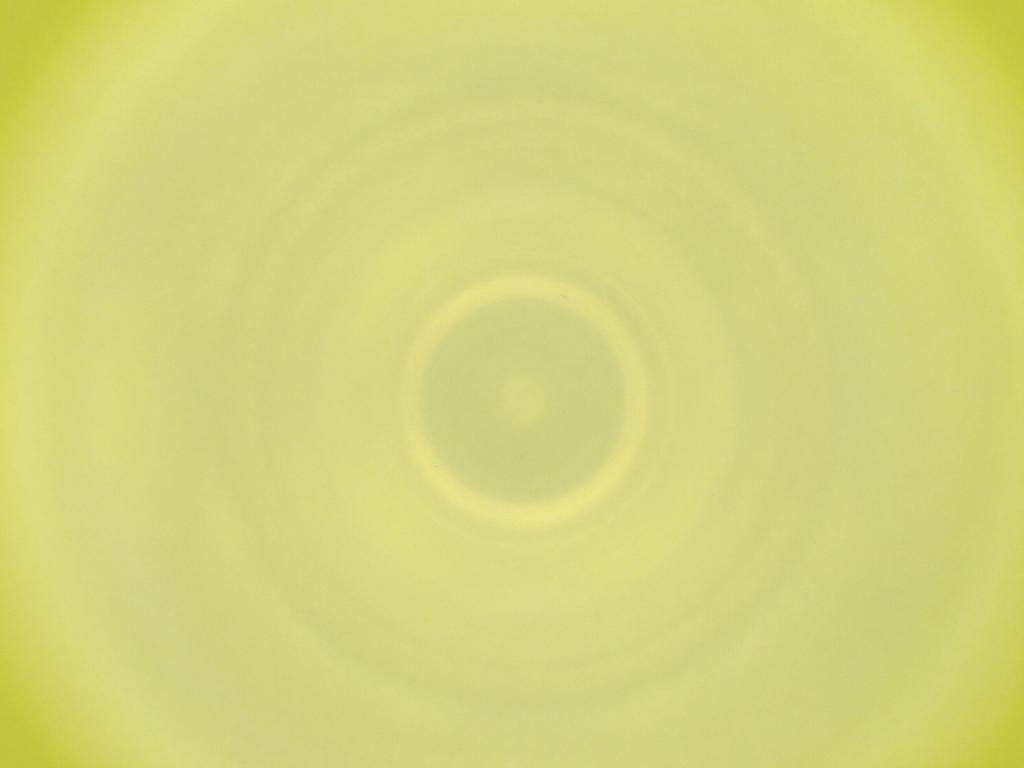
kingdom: Animalia
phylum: Arthropoda
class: Insecta
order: Diptera
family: Cecidomyiidae
